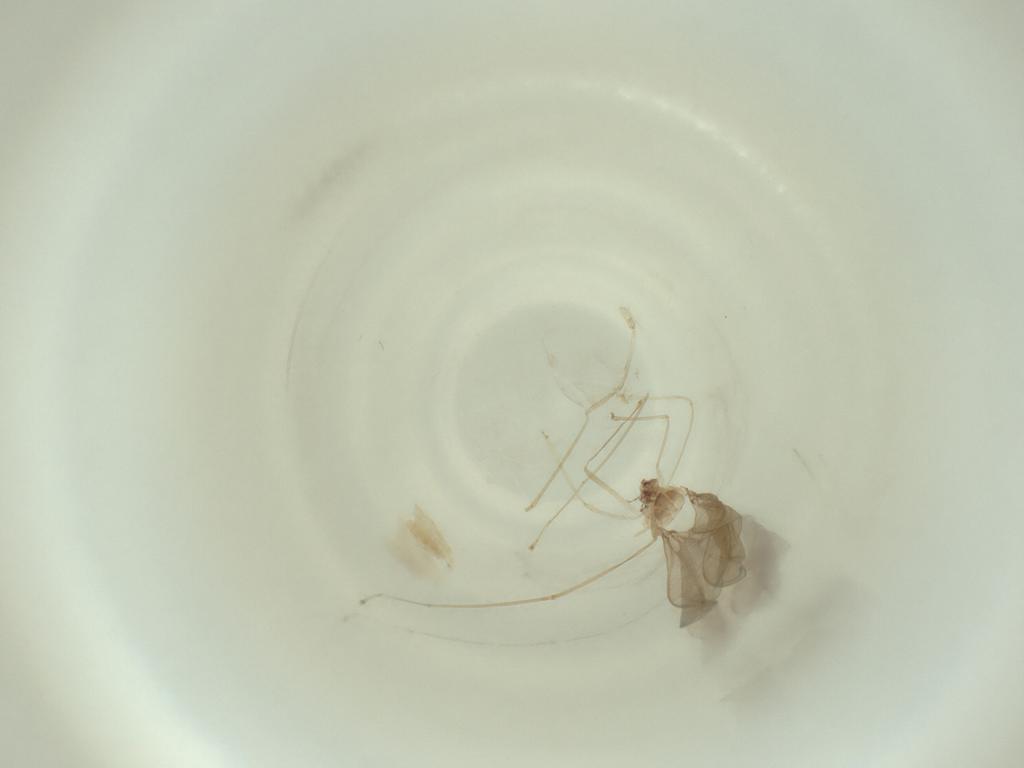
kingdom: Animalia
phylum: Arthropoda
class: Insecta
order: Diptera
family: Cecidomyiidae
